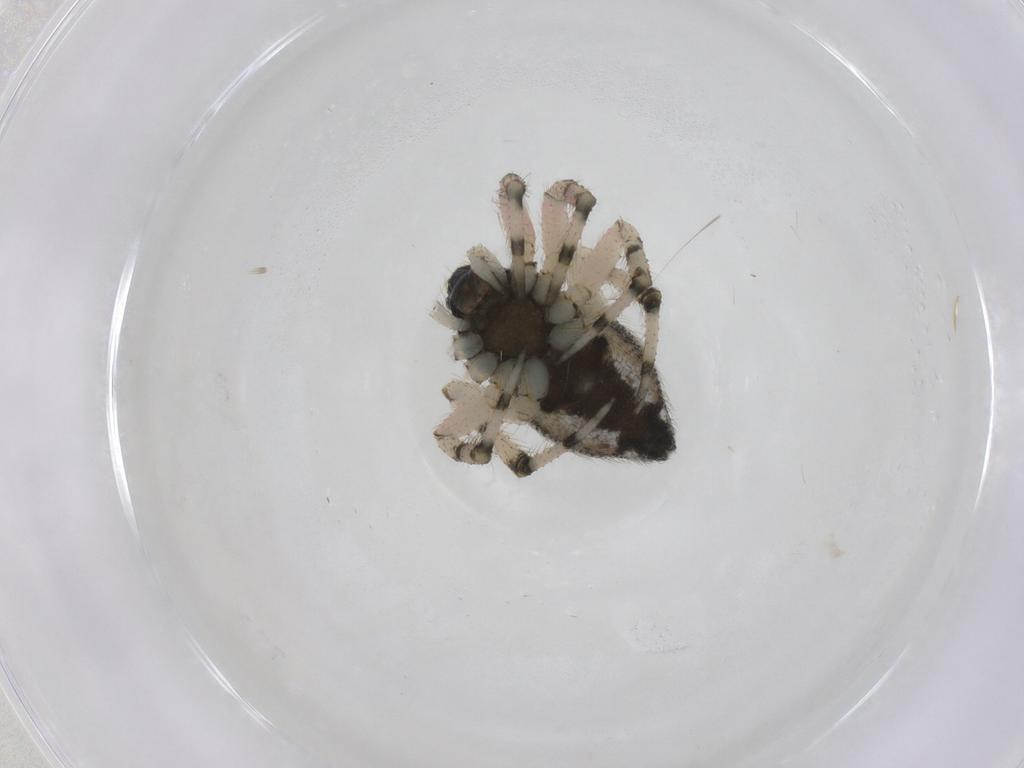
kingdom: Animalia
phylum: Arthropoda
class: Arachnida
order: Araneae
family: Theridiidae
